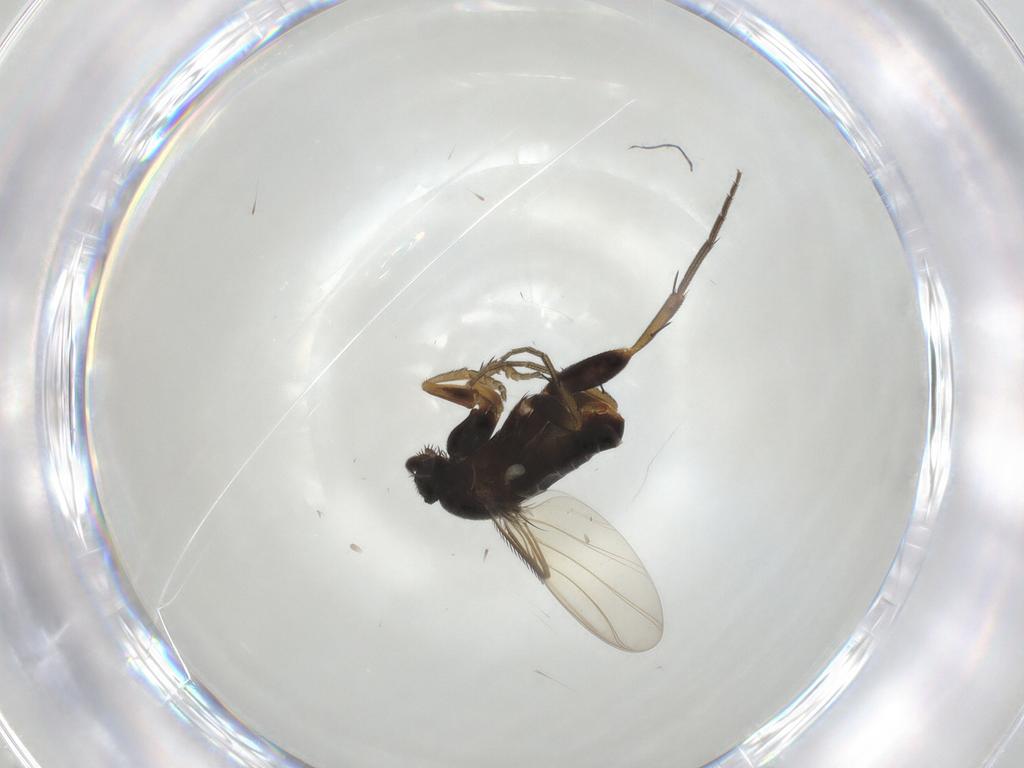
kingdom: Animalia
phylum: Arthropoda
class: Insecta
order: Diptera
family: Phoridae
